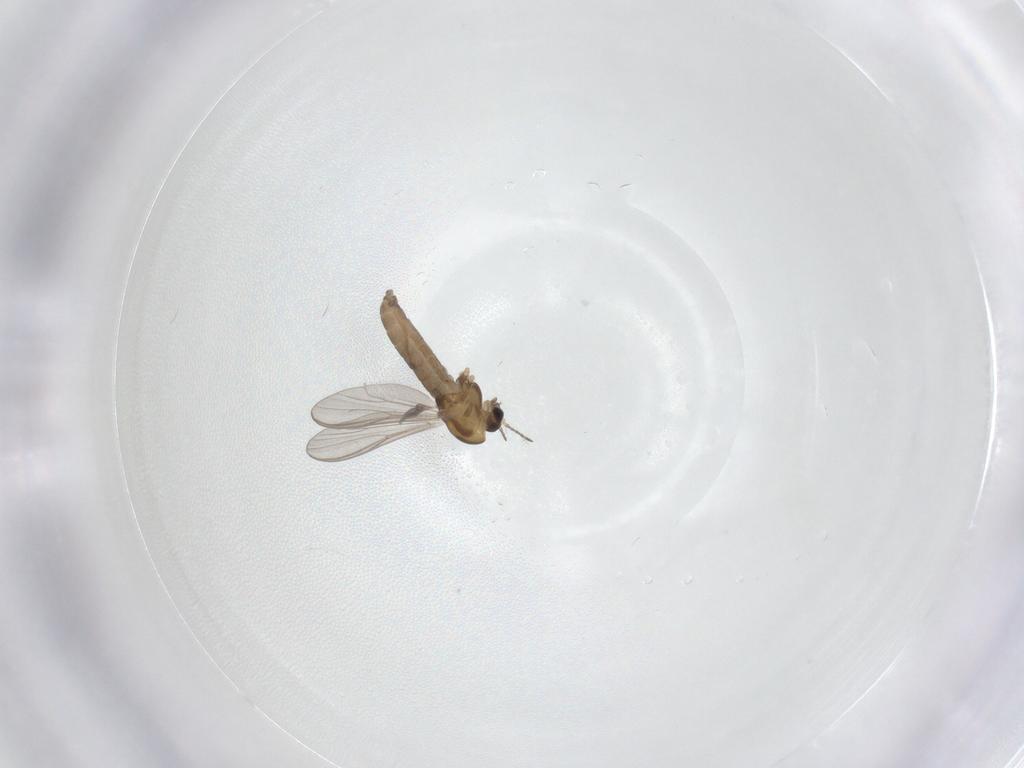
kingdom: Animalia
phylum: Arthropoda
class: Insecta
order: Diptera
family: Chironomidae
